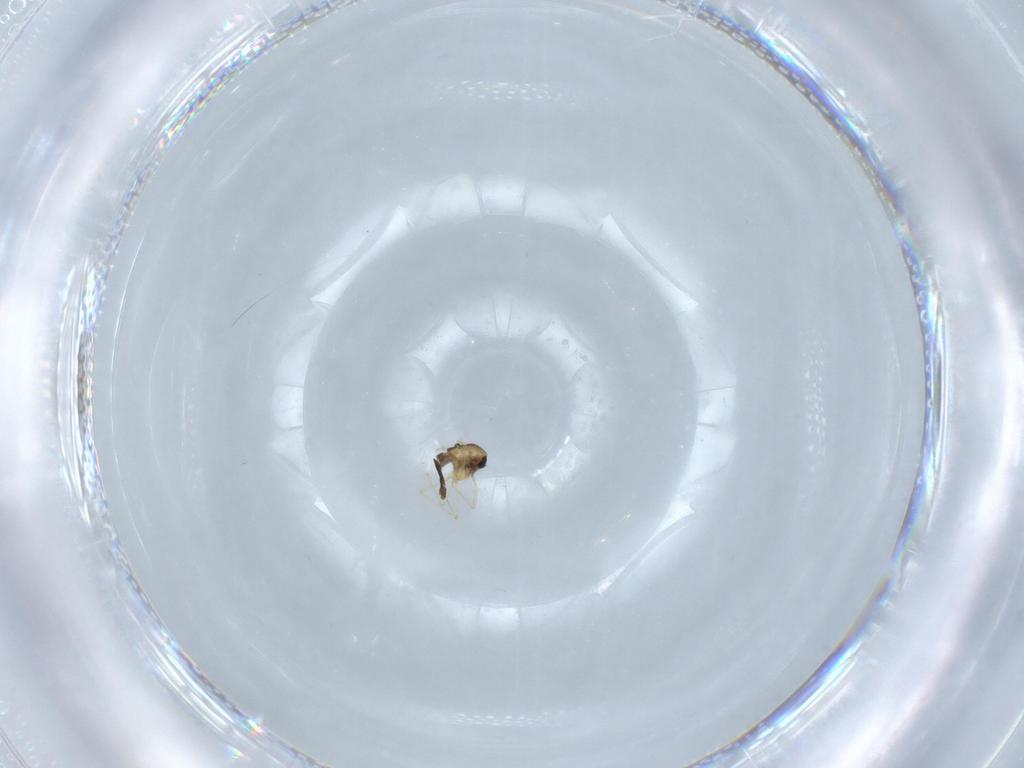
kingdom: Animalia
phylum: Arthropoda
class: Insecta
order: Diptera
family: Chironomidae
